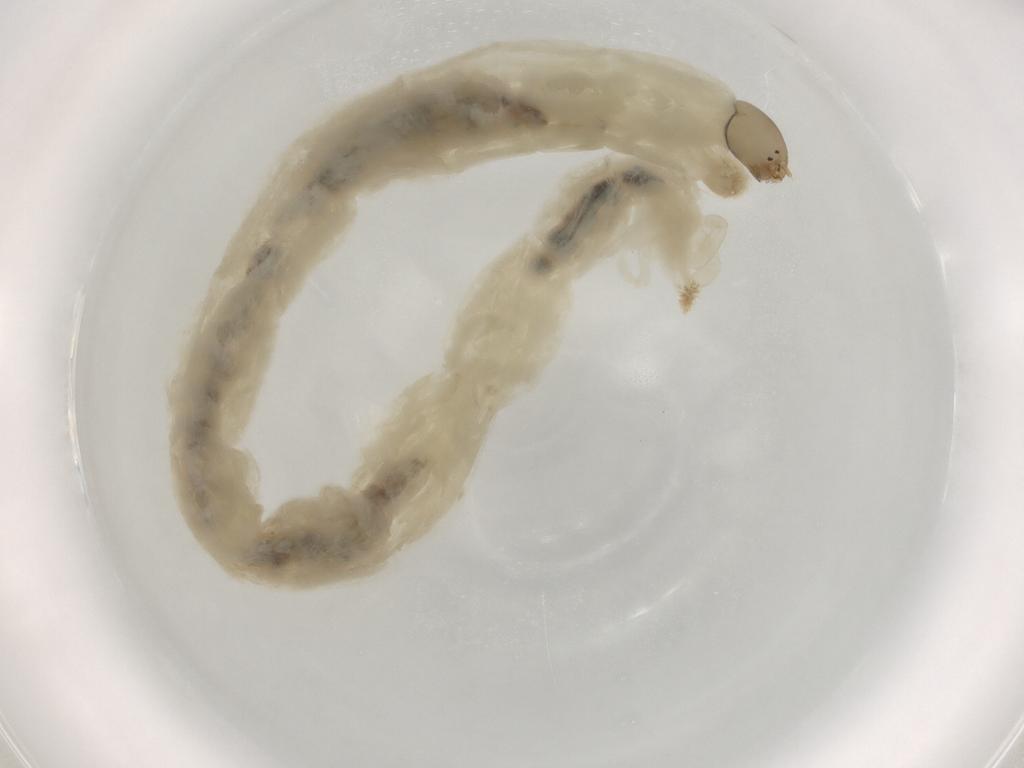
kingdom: Animalia
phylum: Arthropoda
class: Insecta
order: Diptera
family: Chironomidae
